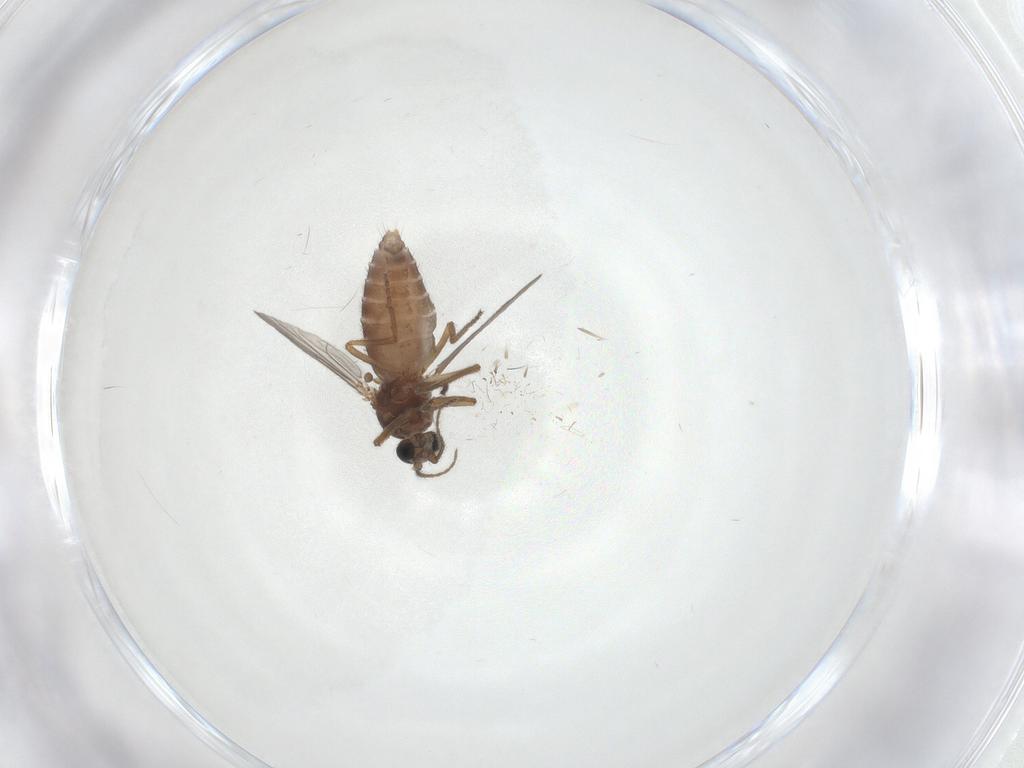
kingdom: Animalia
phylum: Arthropoda
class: Insecta
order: Diptera
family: Ceratopogonidae
